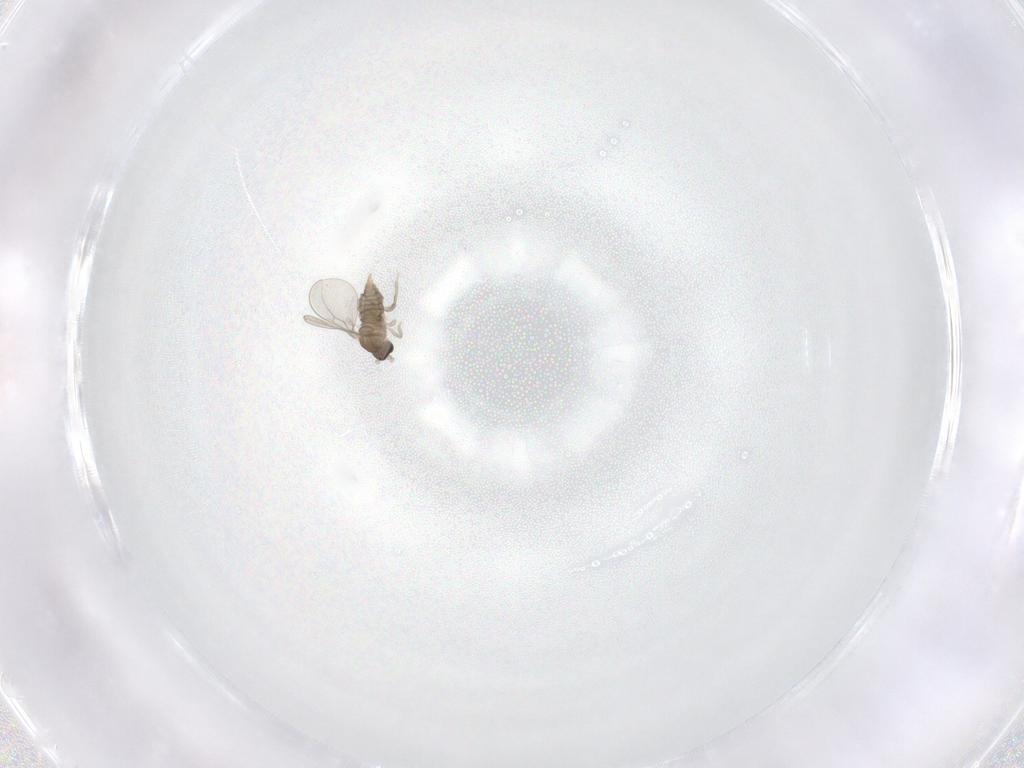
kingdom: Animalia
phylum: Arthropoda
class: Insecta
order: Diptera
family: Cecidomyiidae
